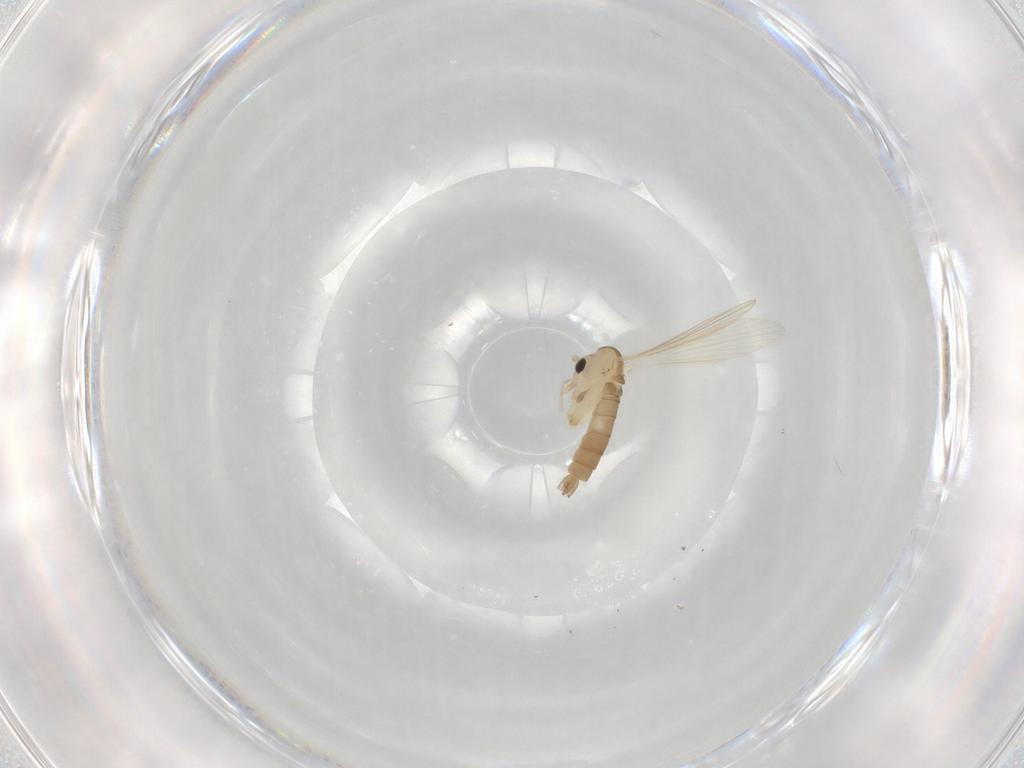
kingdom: Animalia
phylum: Arthropoda
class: Insecta
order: Diptera
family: Psychodidae
